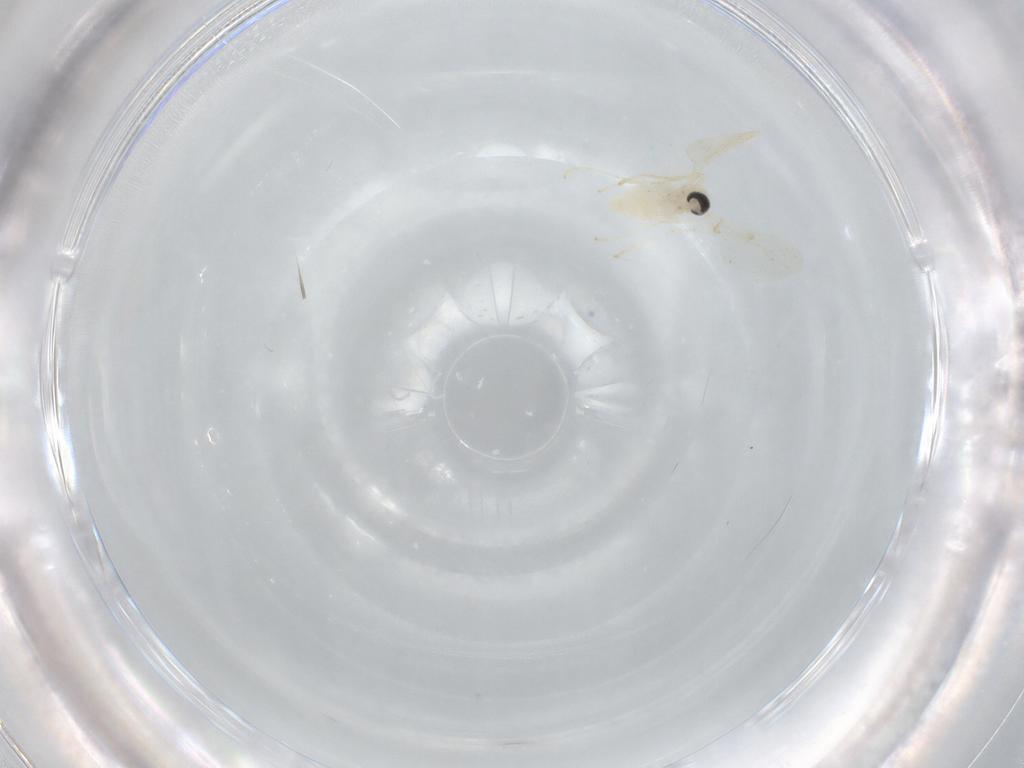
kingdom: Animalia
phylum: Arthropoda
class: Insecta
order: Diptera
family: Cecidomyiidae
